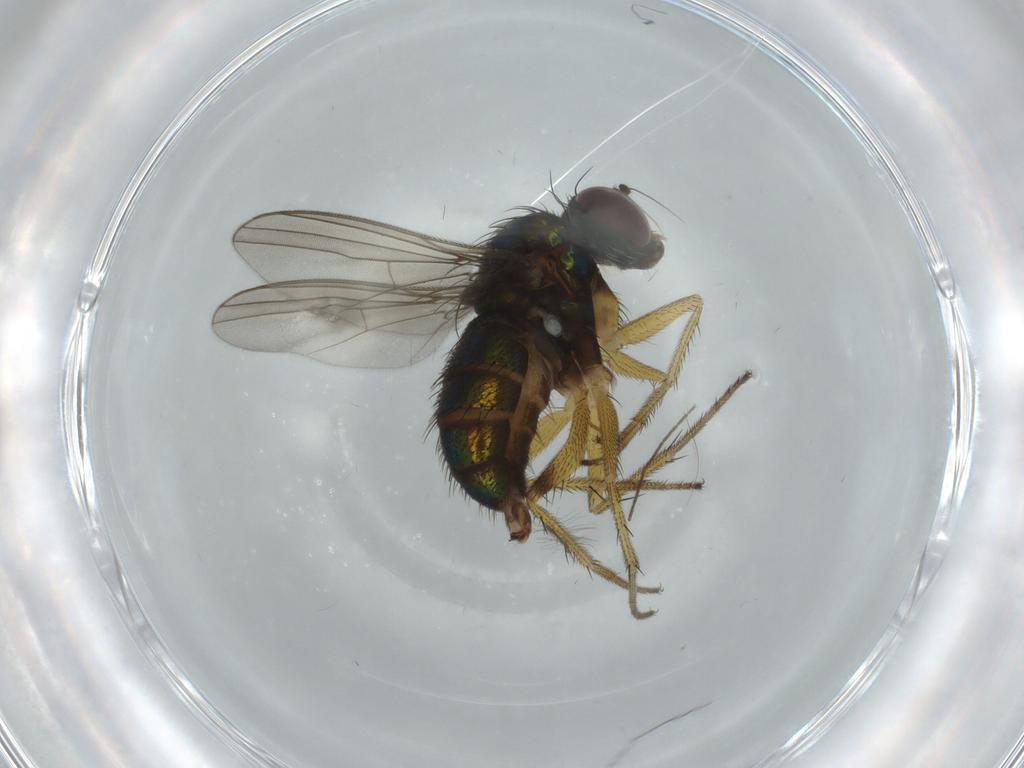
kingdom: Animalia
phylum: Arthropoda
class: Insecta
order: Diptera
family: Dolichopodidae
